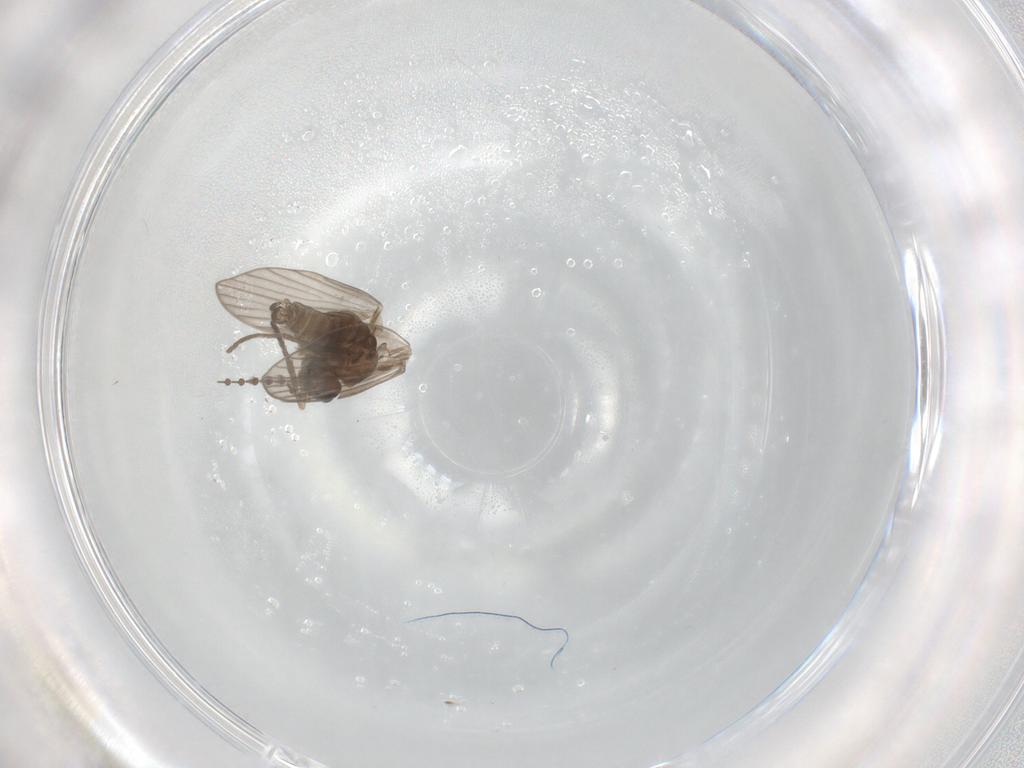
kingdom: Animalia
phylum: Arthropoda
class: Insecta
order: Diptera
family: Psychodidae
